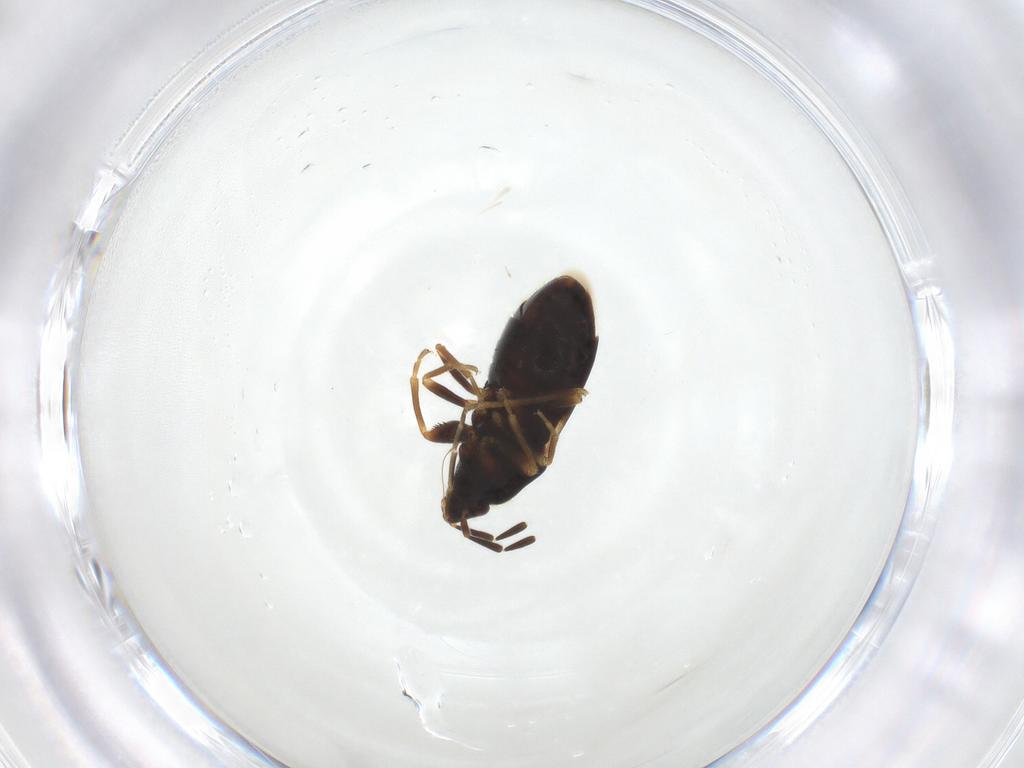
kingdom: Animalia
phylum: Arthropoda
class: Insecta
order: Hemiptera
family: Rhyparochromidae
